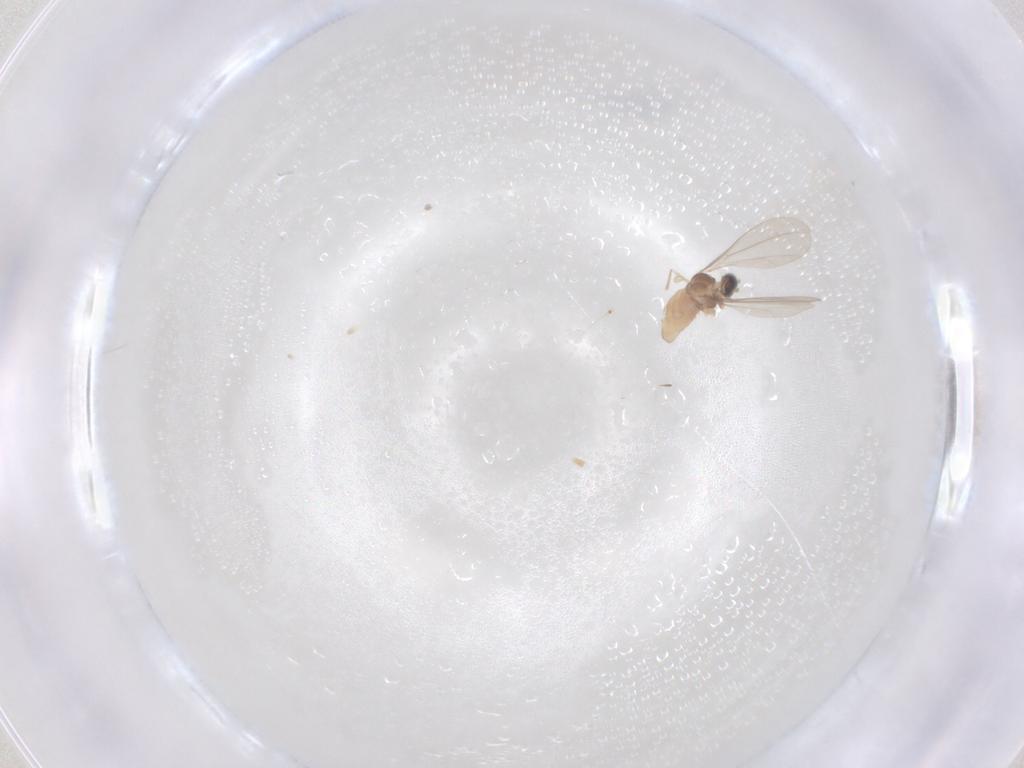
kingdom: Animalia
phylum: Arthropoda
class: Insecta
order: Diptera
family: Cecidomyiidae
